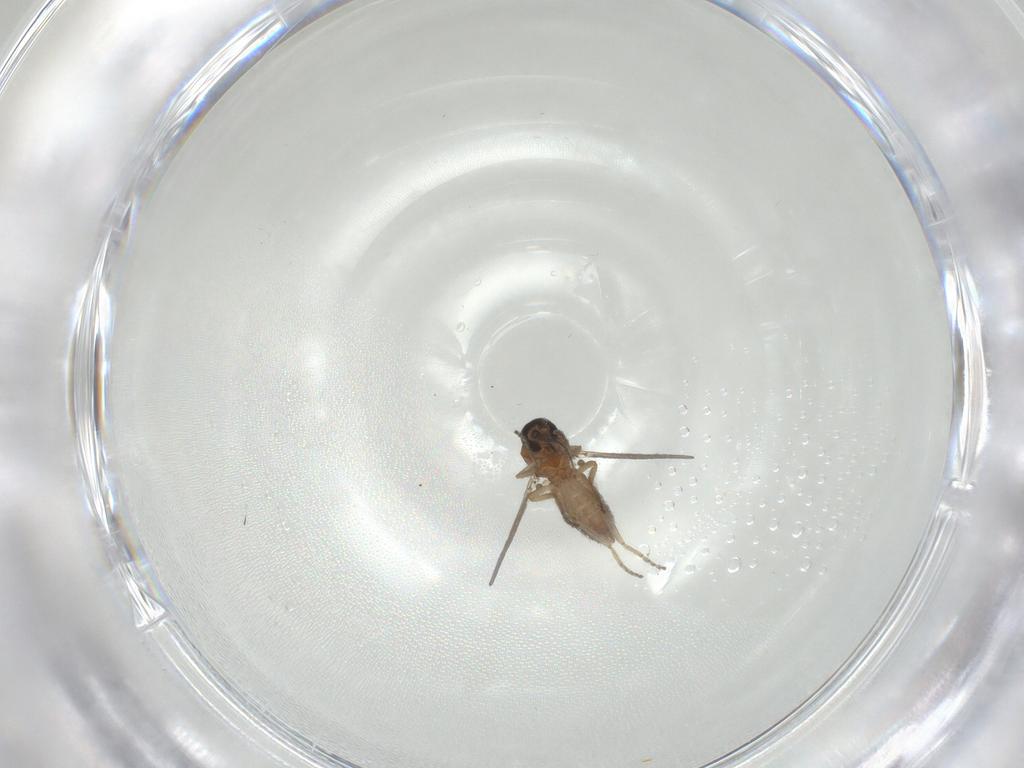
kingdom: Animalia
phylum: Arthropoda
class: Insecta
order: Diptera
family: Ceratopogonidae
